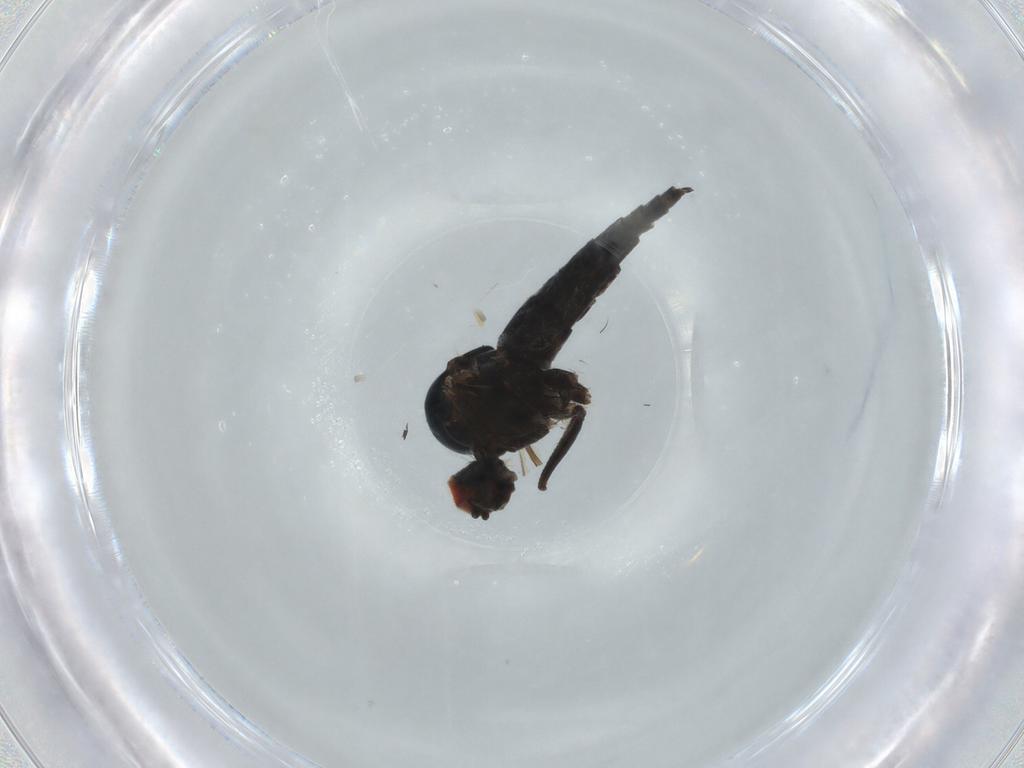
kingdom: Animalia
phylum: Arthropoda
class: Insecta
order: Diptera
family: Hybotidae
